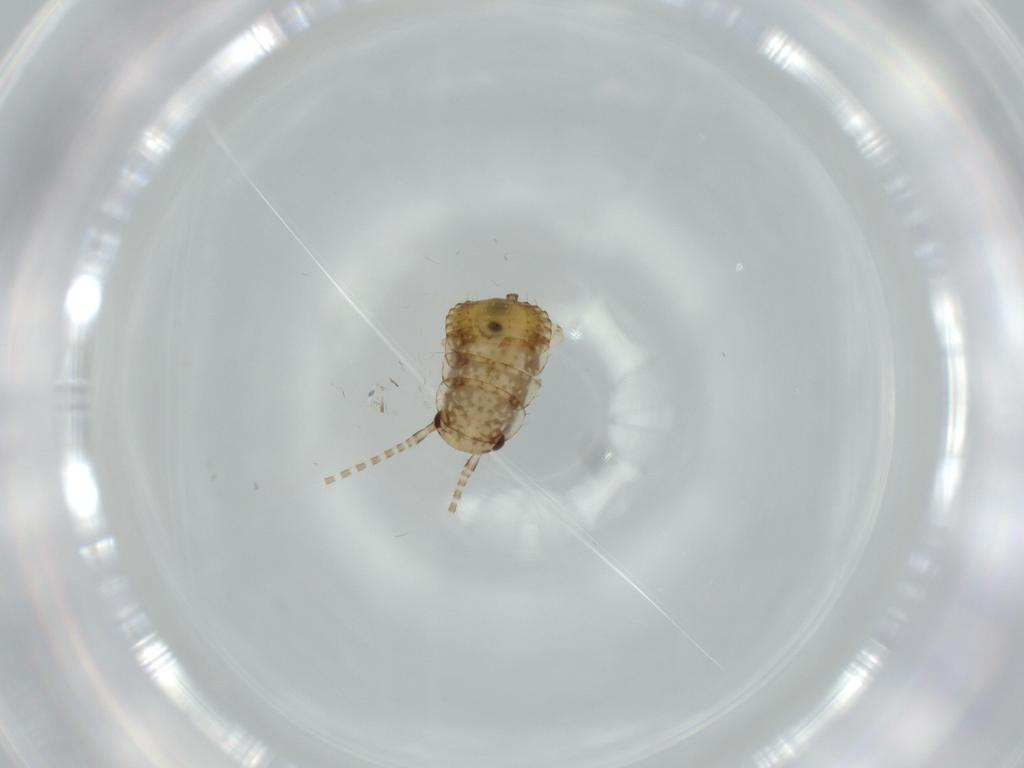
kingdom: Animalia
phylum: Arthropoda
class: Insecta
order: Blattodea
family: Ectobiidae
